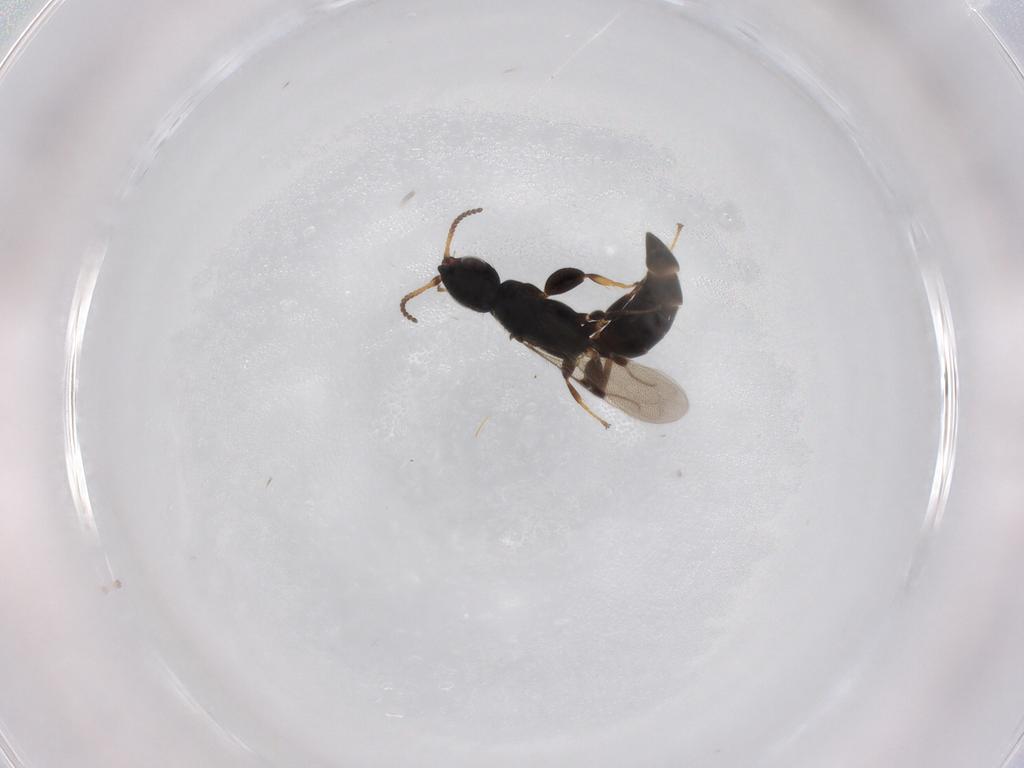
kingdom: Animalia
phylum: Arthropoda
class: Insecta
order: Hymenoptera
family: Bethylidae
